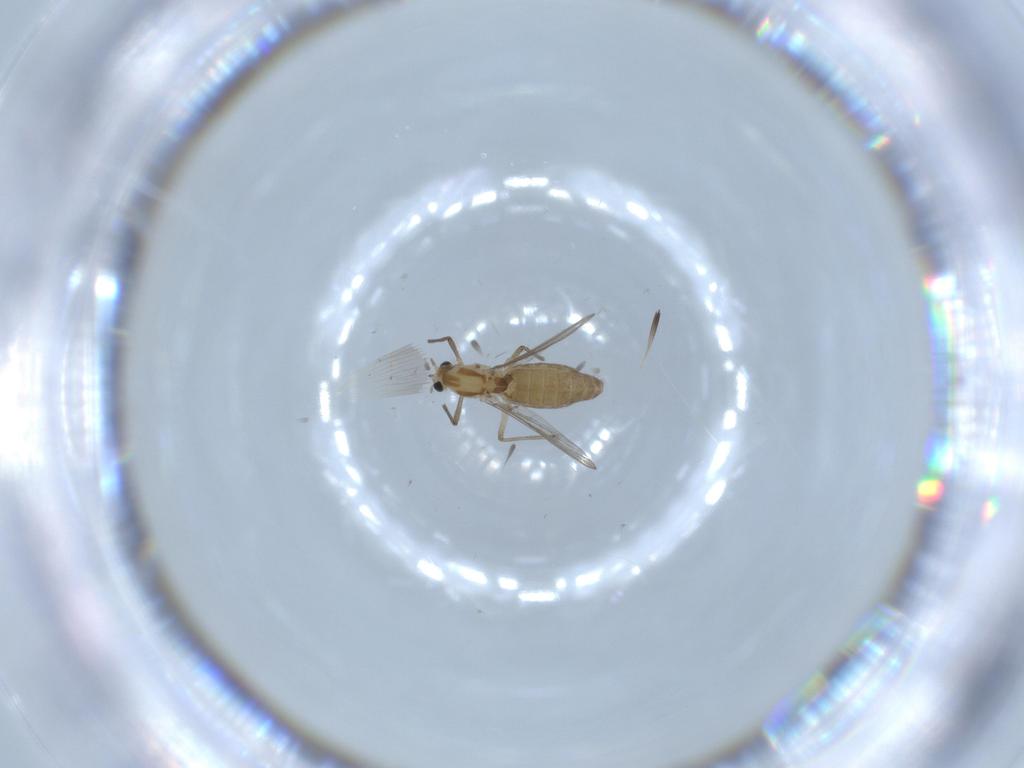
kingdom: Animalia
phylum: Arthropoda
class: Insecta
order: Diptera
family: Chironomidae
